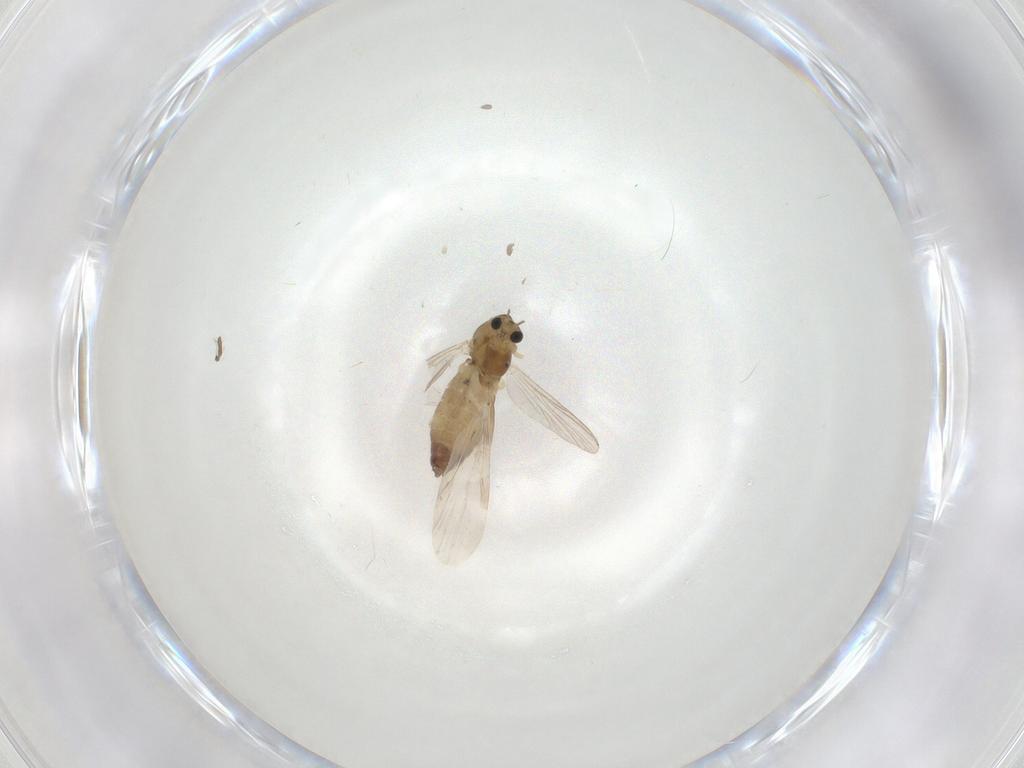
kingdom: Animalia
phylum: Arthropoda
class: Insecta
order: Diptera
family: Chironomidae
